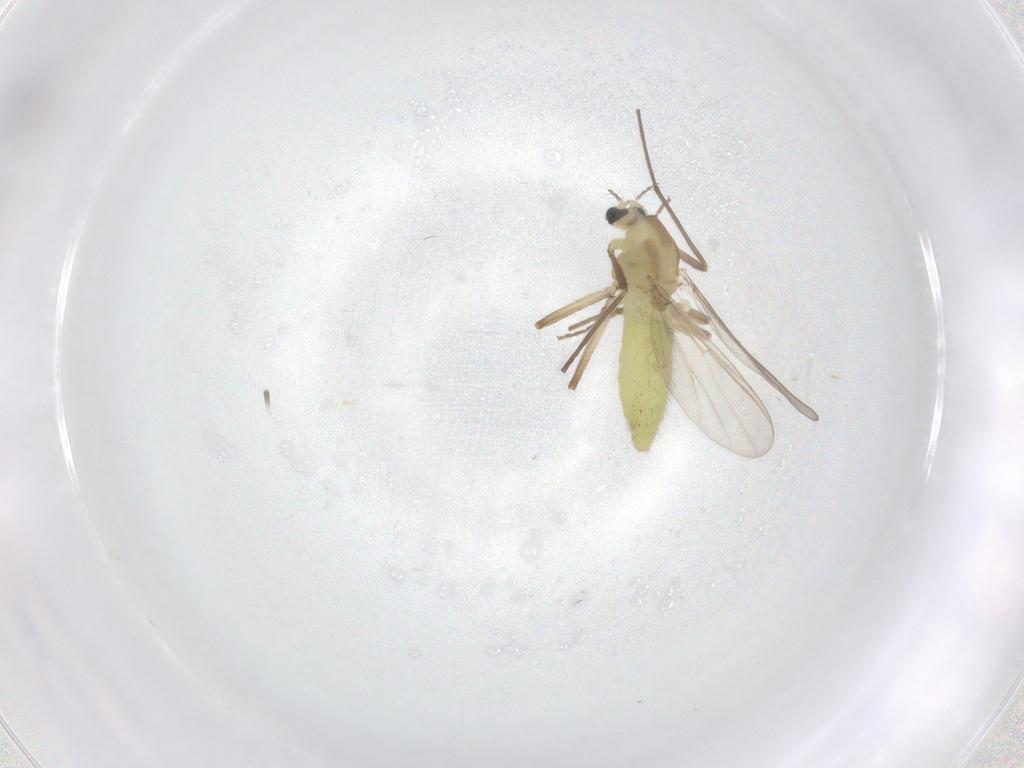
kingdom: Animalia
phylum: Arthropoda
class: Insecta
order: Diptera
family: Chironomidae
